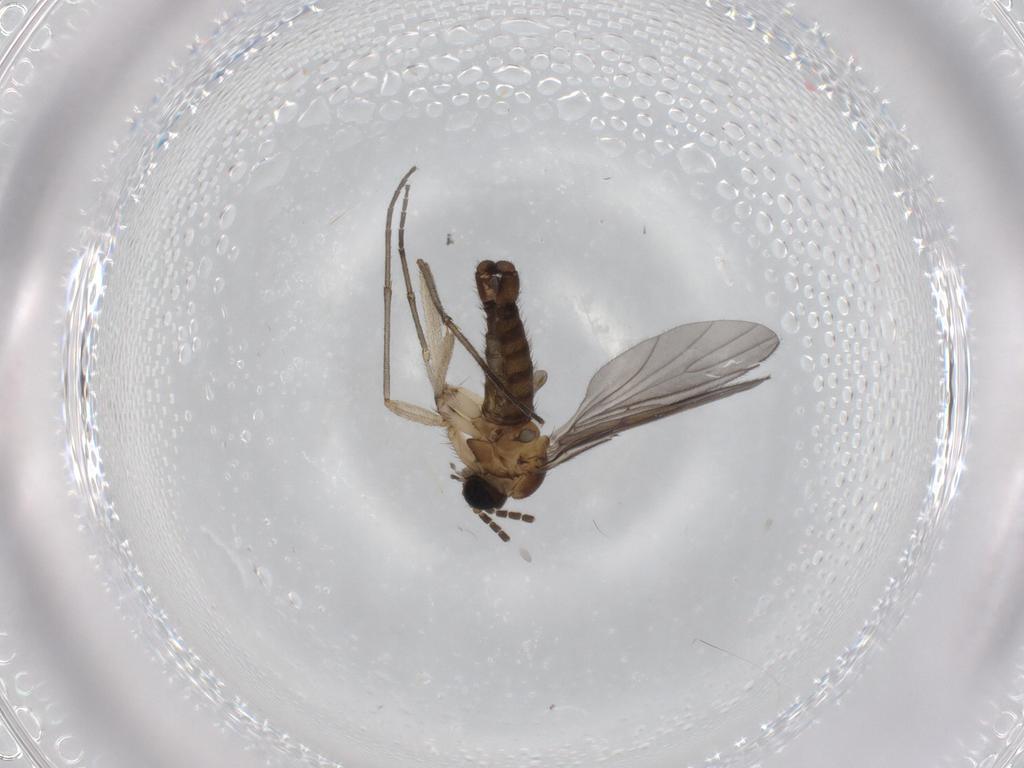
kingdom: Animalia
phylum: Arthropoda
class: Insecta
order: Diptera
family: Sciaridae
